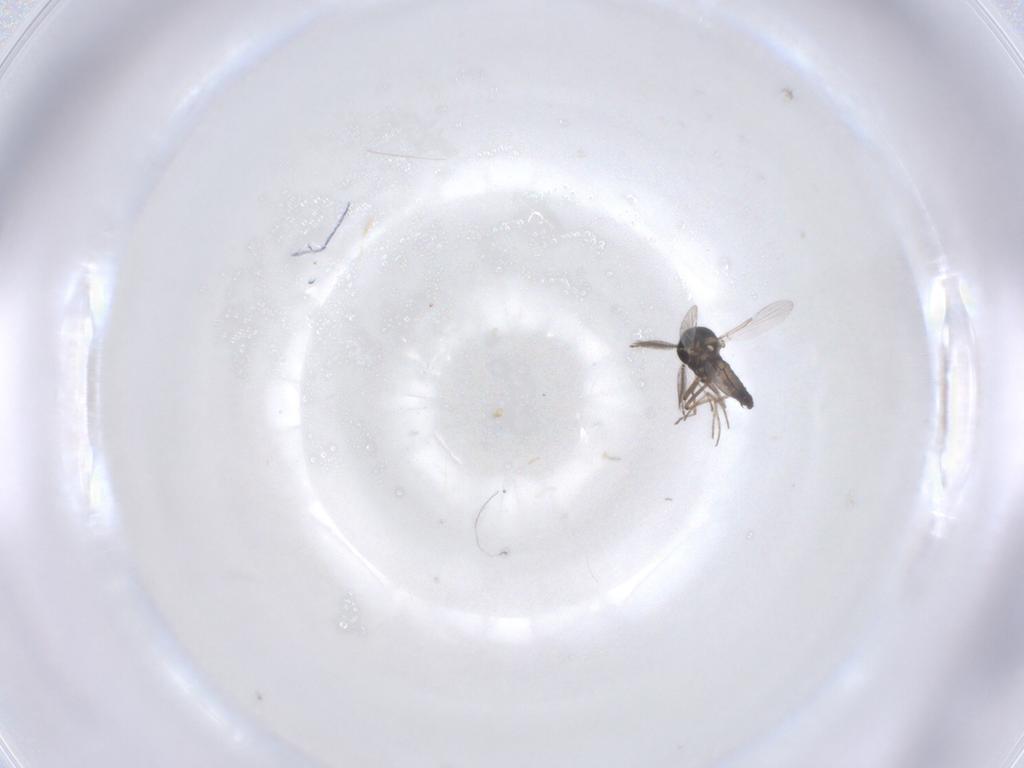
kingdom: Animalia
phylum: Arthropoda
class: Insecta
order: Diptera
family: Ceratopogonidae
